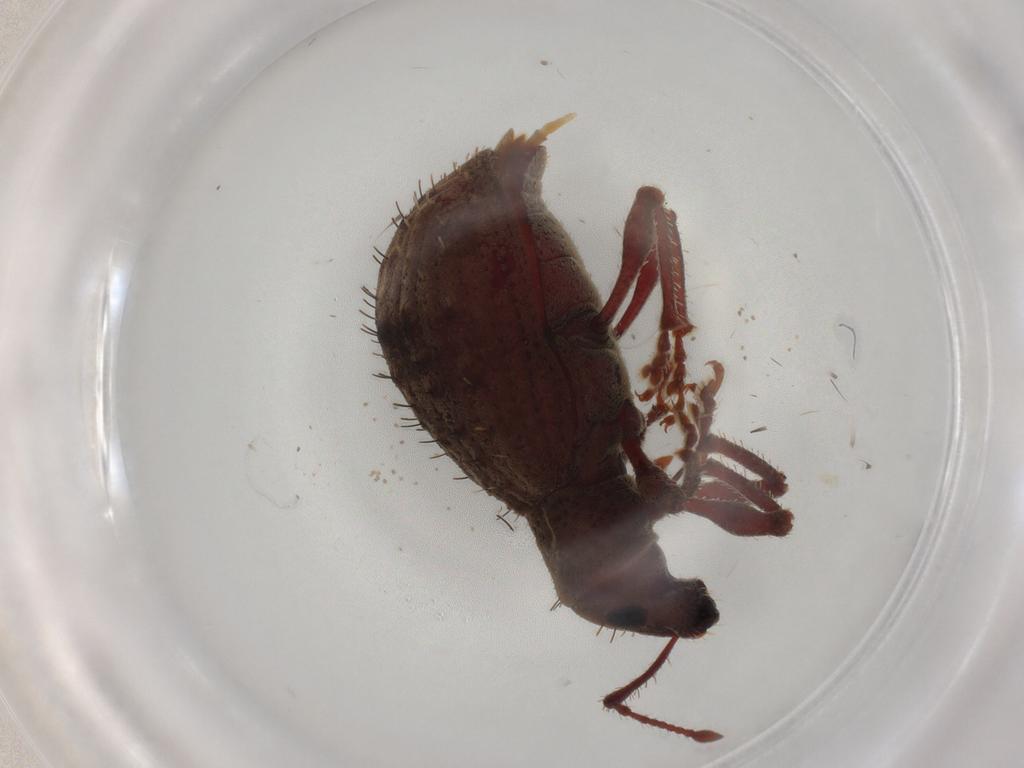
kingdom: Animalia
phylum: Arthropoda
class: Insecta
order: Coleoptera
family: Curculionidae
